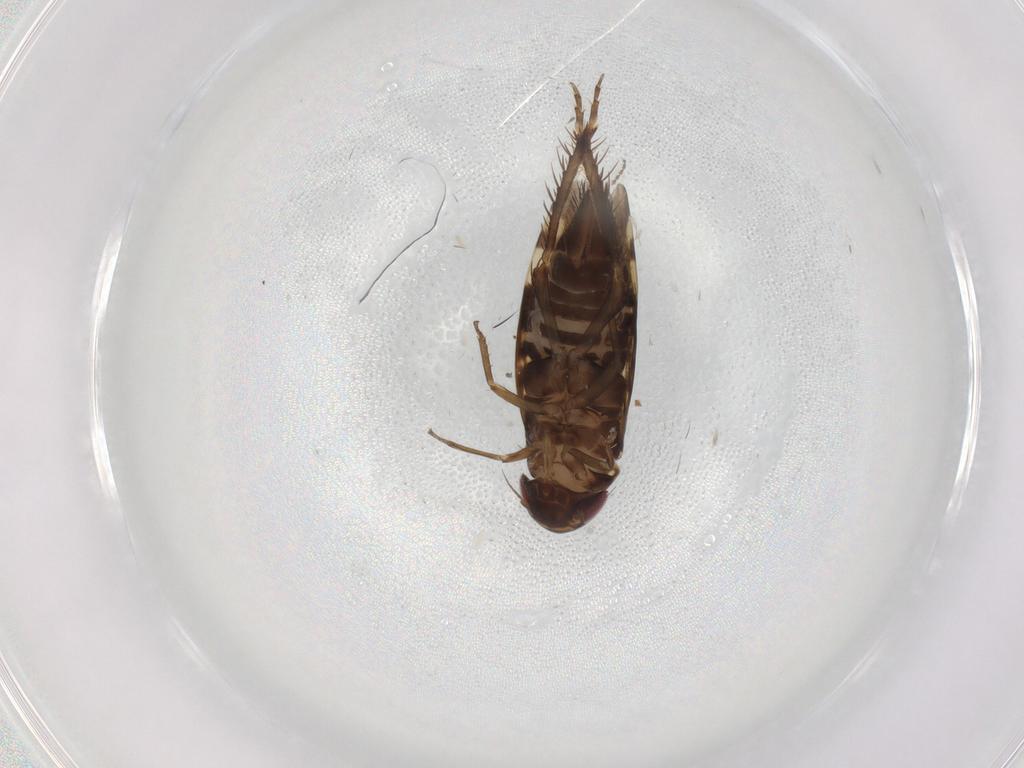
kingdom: Animalia
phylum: Arthropoda
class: Insecta
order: Hemiptera
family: Cicadellidae
